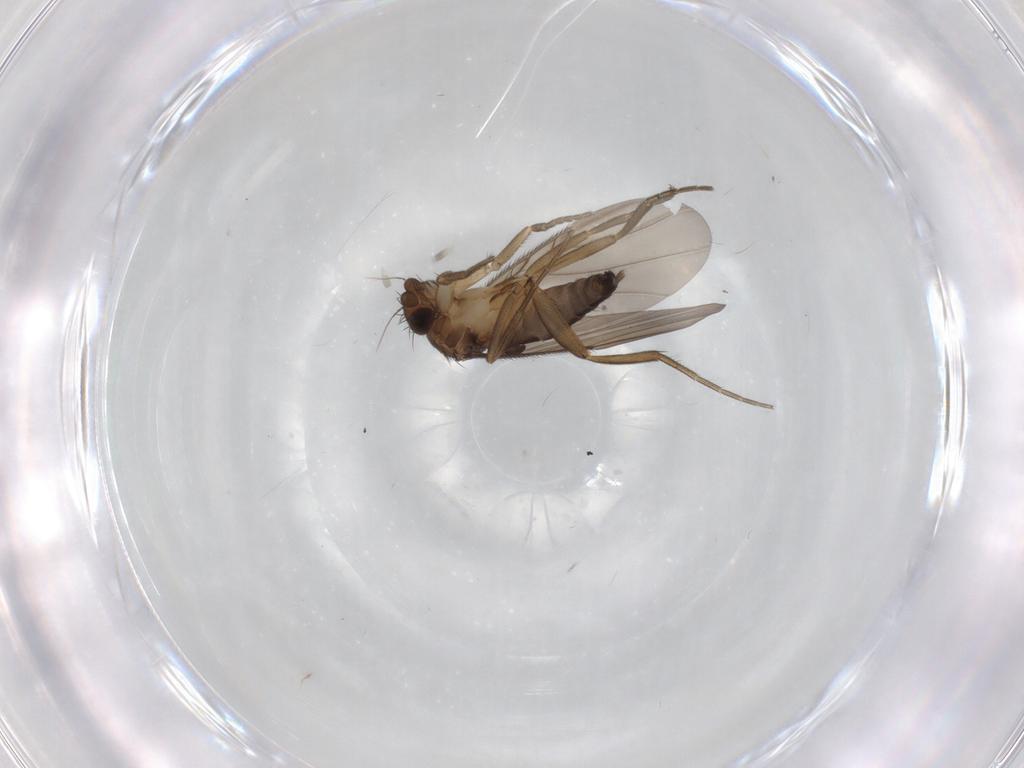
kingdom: Animalia
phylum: Arthropoda
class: Insecta
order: Diptera
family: Phoridae
